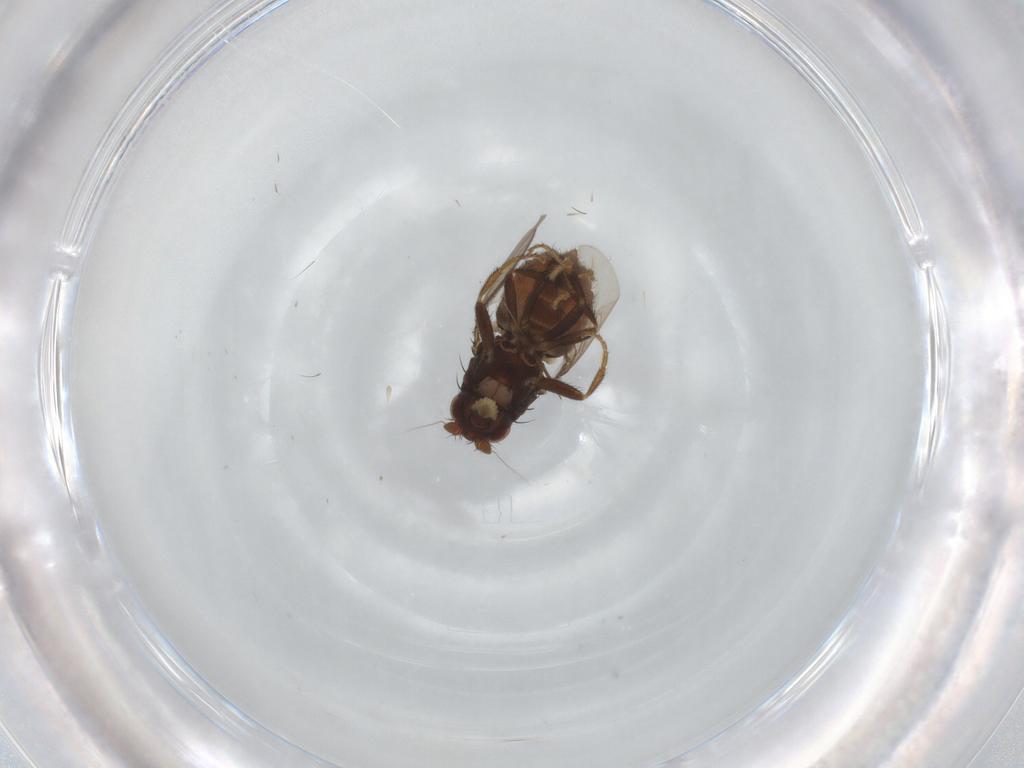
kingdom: Animalia
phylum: Arthropoda
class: Insecta
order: Diptera
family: Sphaeroceridae
